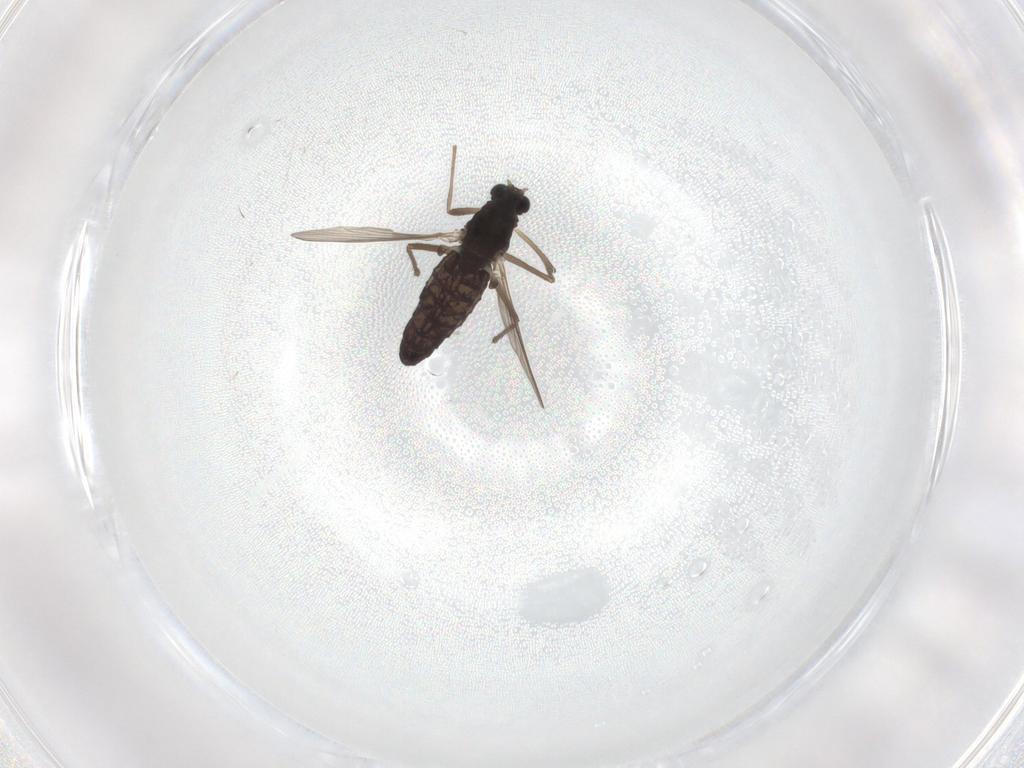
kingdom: Animalia
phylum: Arthropoda
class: Insecta
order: Diptera
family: Chironomidae
